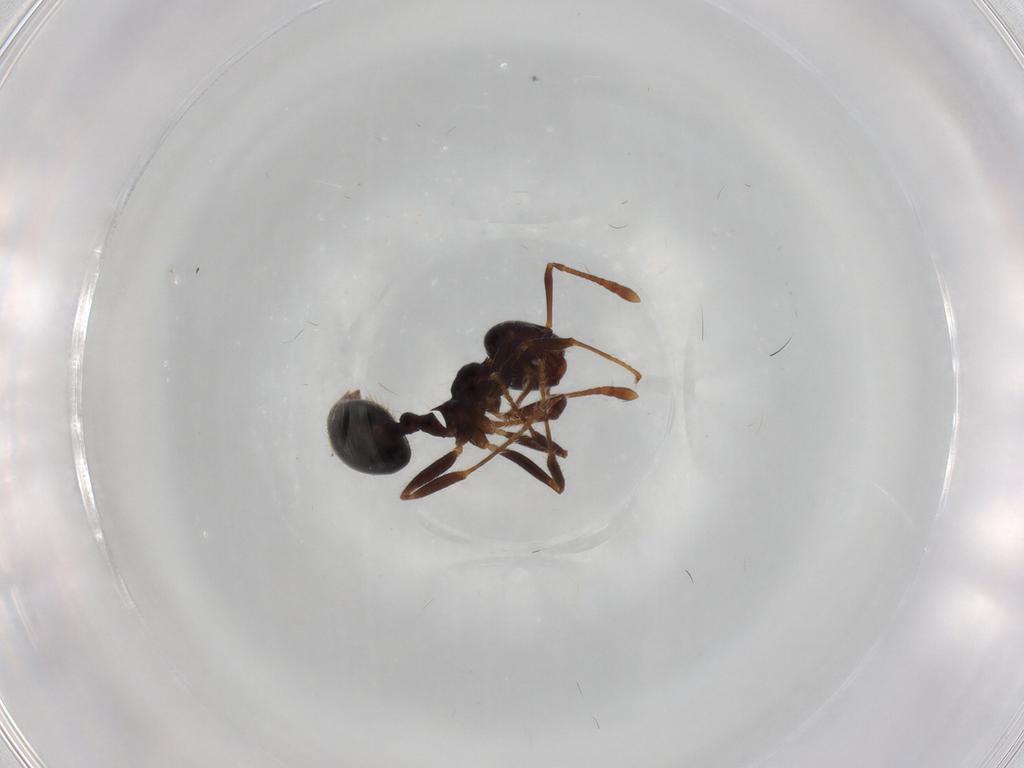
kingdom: Animalia
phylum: Arthropoda
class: Insecta
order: Hymenoptera
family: Formicidae
